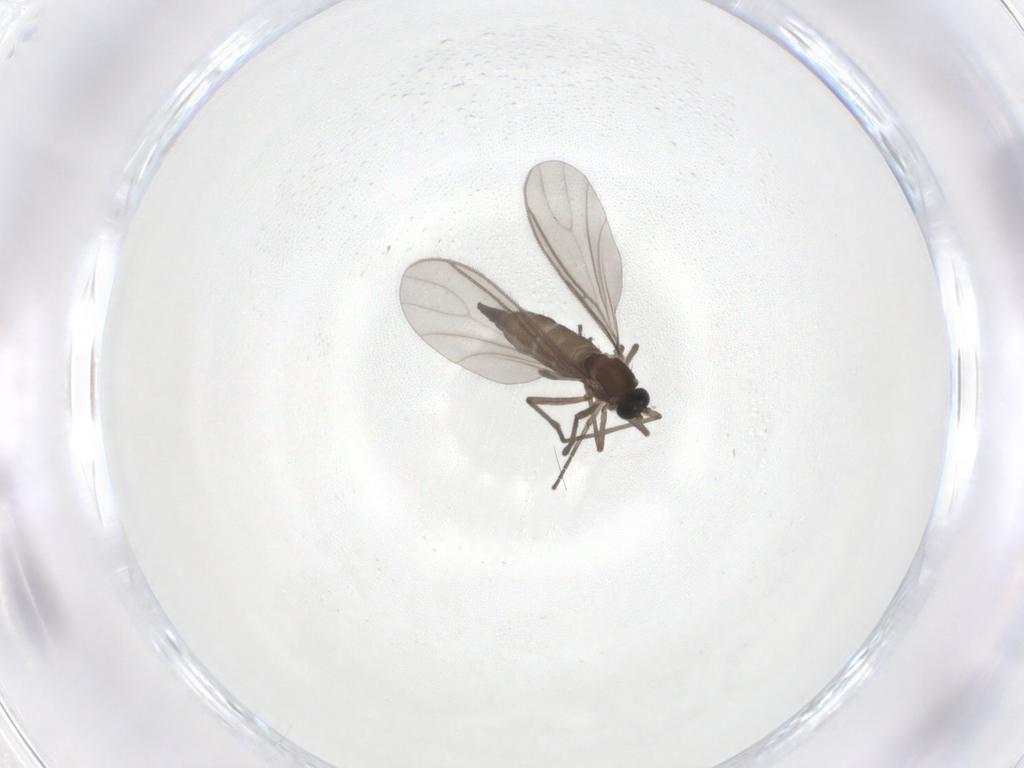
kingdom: Animalia
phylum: Arthropoda
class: Insecta
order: Diptera
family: Sciaridae
